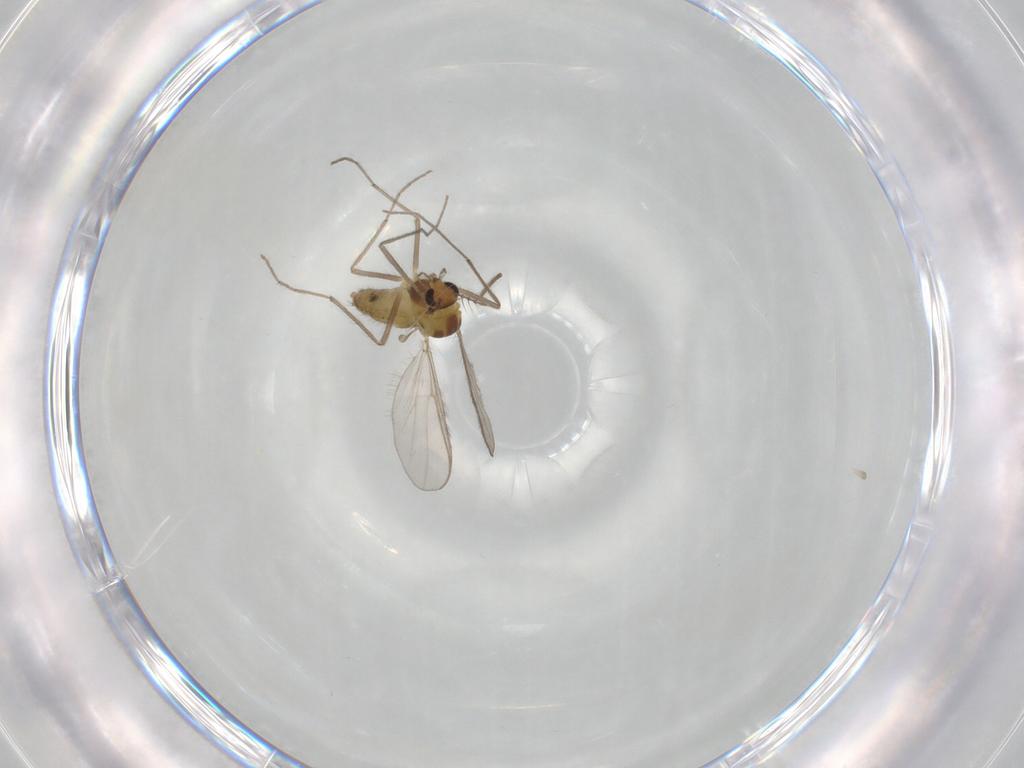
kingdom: Animalia
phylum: Arthropoda
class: Insecta
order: Diptera
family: Chironomidae
